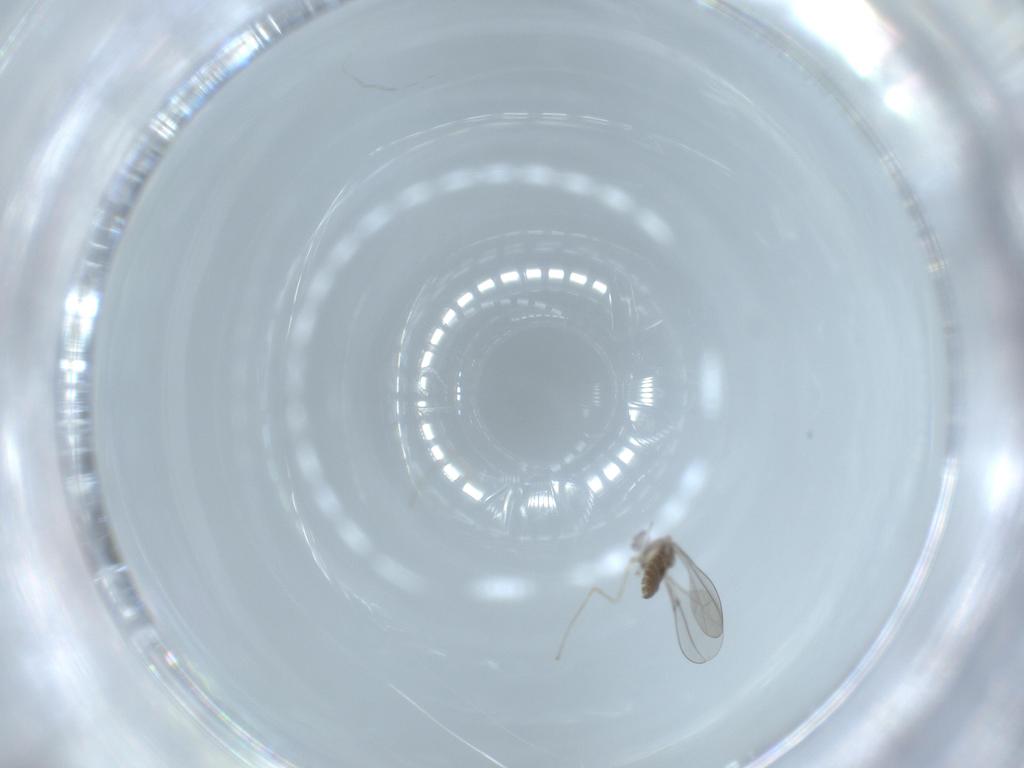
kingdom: Animalia
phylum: Arthropoda
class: Insecta
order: Diptera
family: Cecidomyiidae
